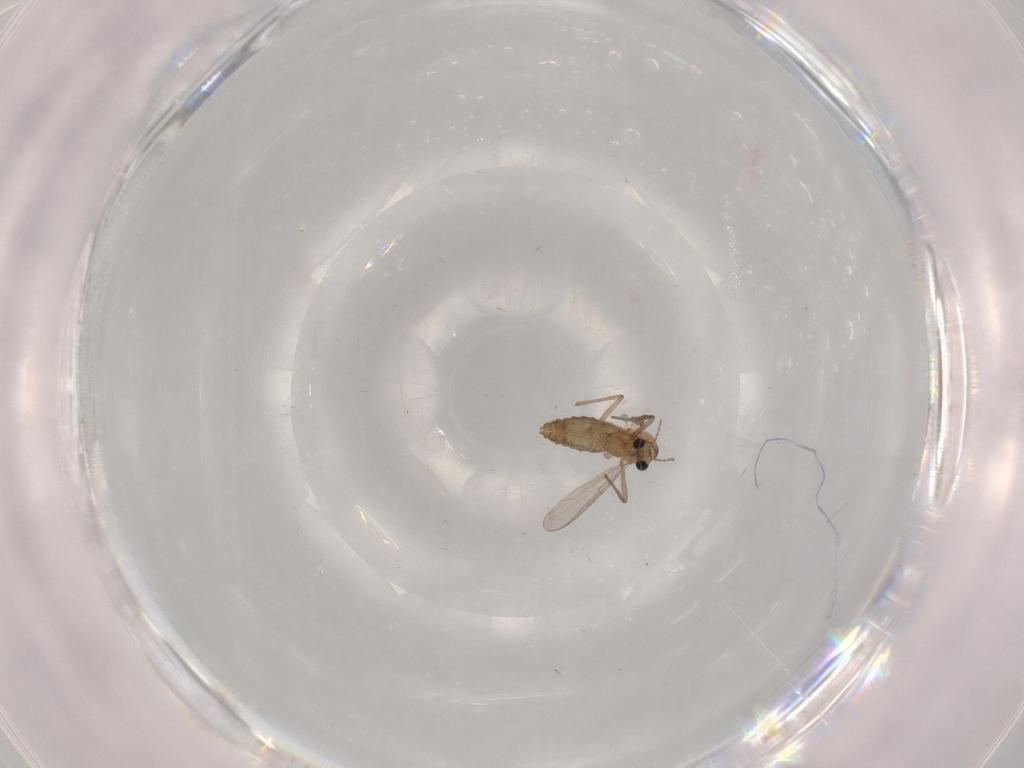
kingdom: Animalia
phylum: Arthropoda
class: Insecta
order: Diptera
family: Chironomidae
